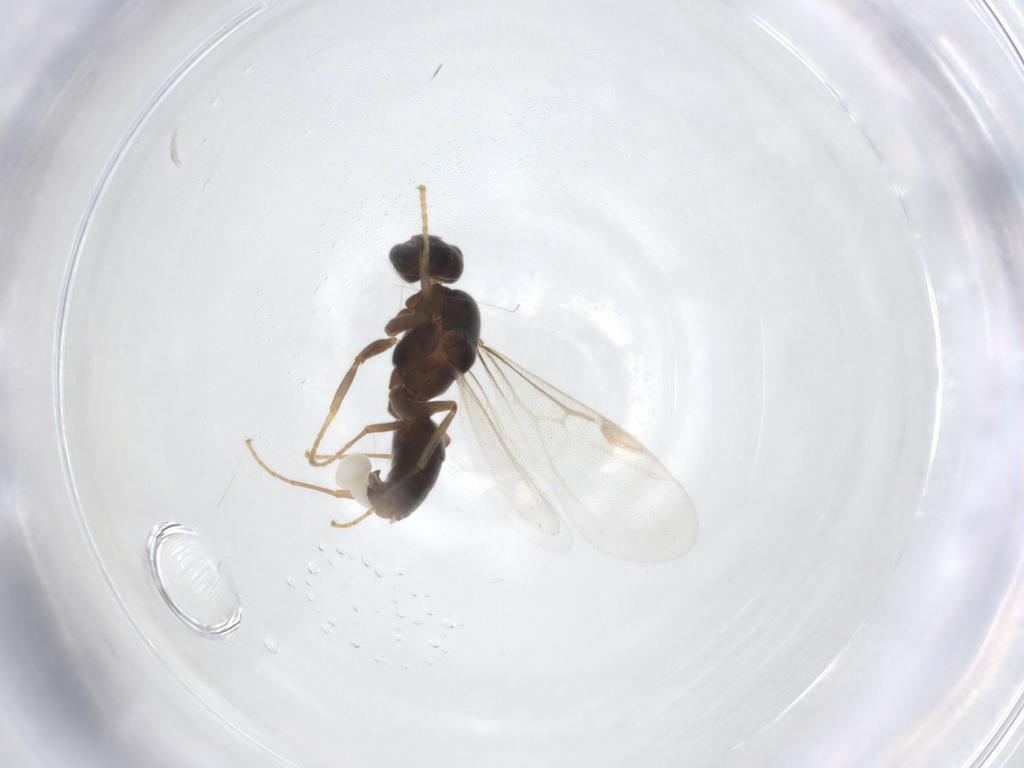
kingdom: Animalia
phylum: Arthropoda
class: Insecta
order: Hymenoptera
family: Formicidae
